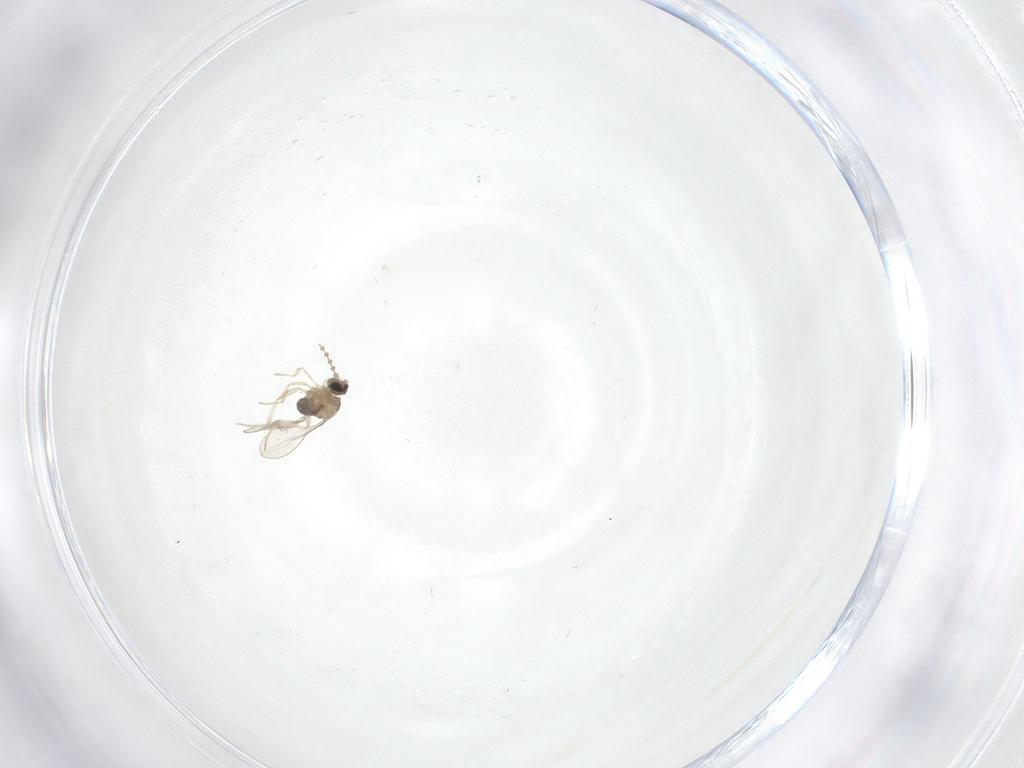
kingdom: Animalia
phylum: Arthropoda
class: Insecta
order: Diptera
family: Cecidomyiidae
